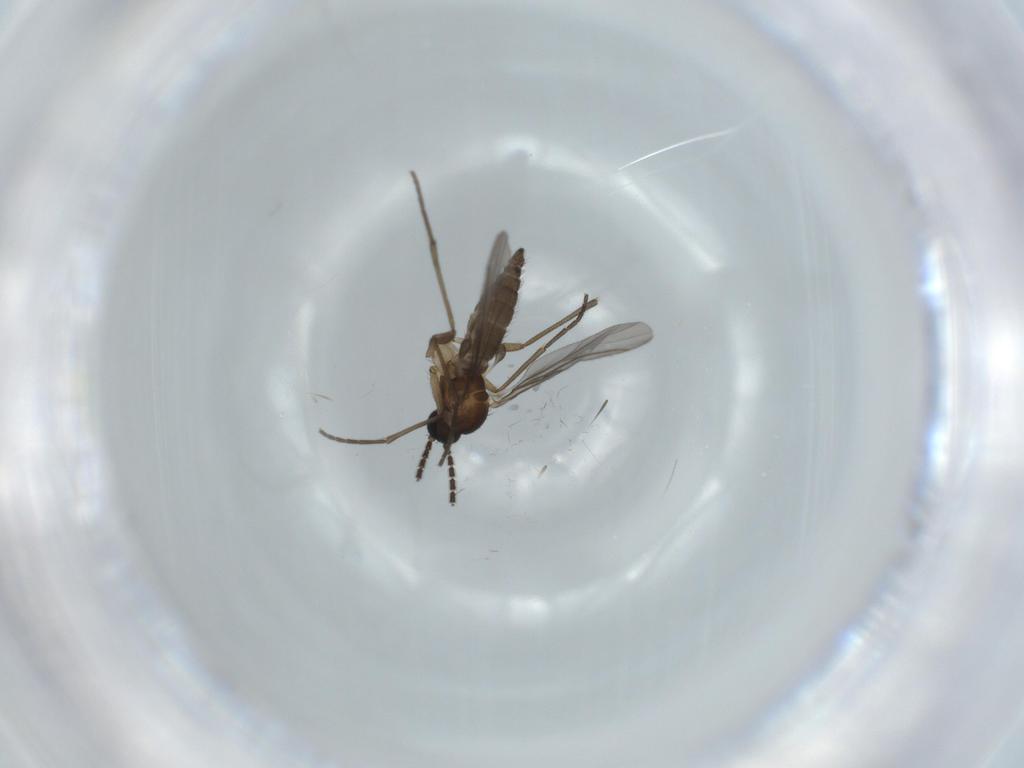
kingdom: Animalia
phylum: Arthropoda
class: Insecta
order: Diptera
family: Sciaridae
